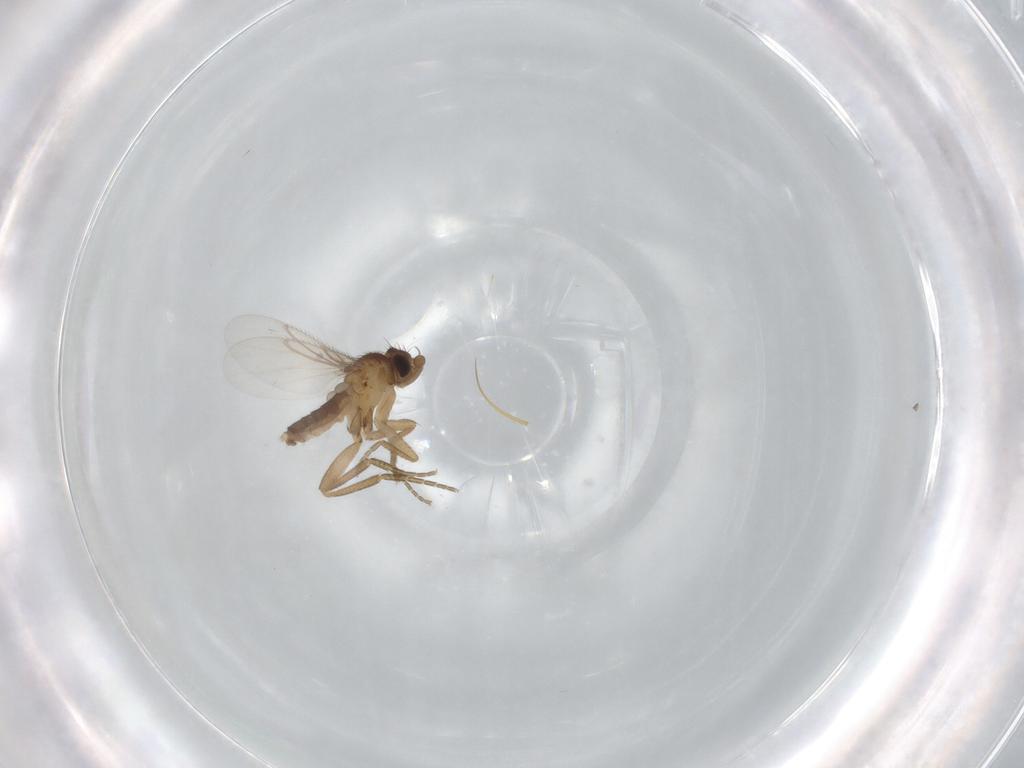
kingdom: Animalia
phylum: Arthropoda
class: Insecta
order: Diptera
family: Phoridae
